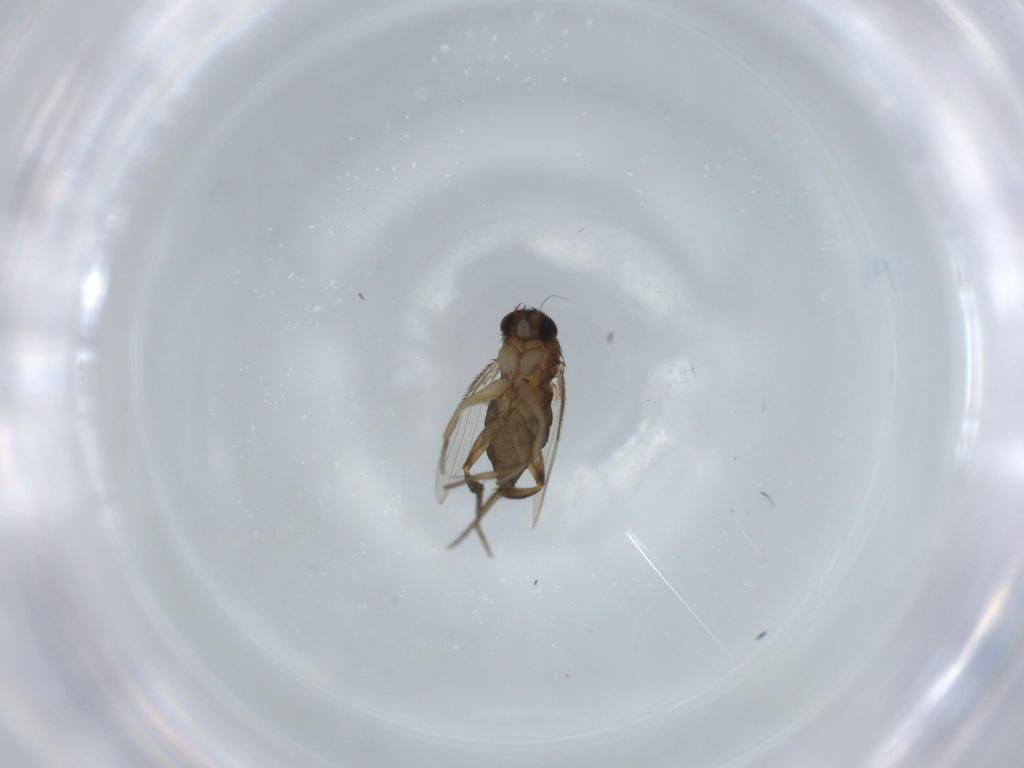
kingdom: Animalia
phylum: Arthropoda
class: Insecta
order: Diptera
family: Phoridae
